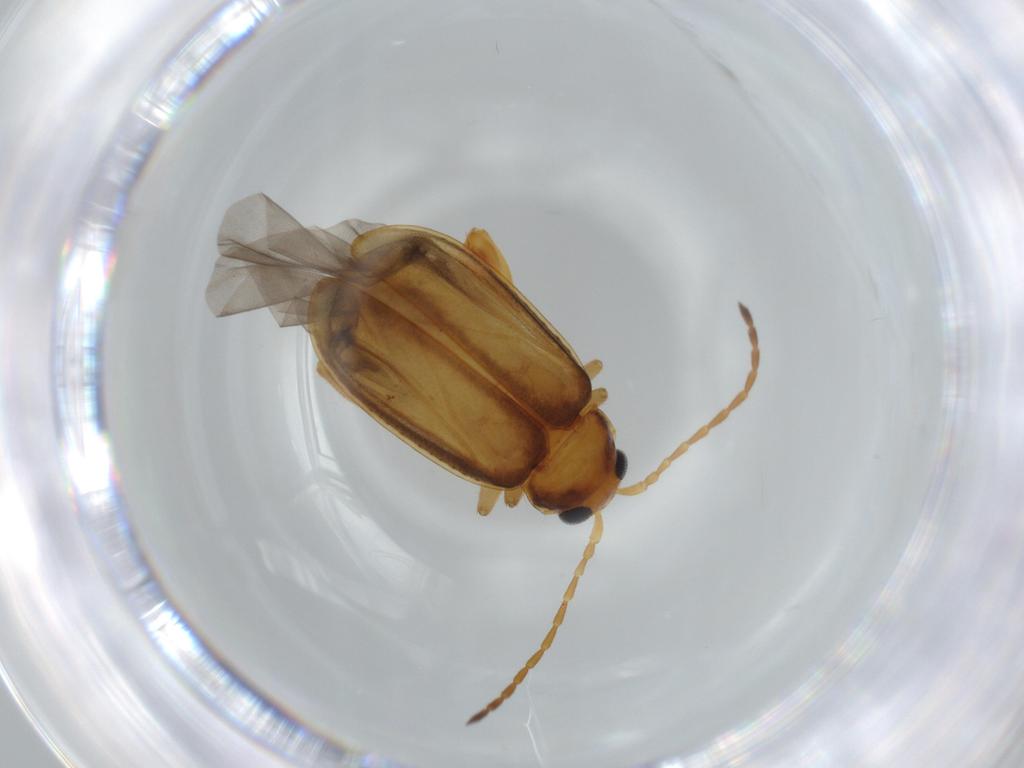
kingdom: Animalia
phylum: Arthropoda
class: Insecta
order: Coleoptera
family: Chrysomelidae
